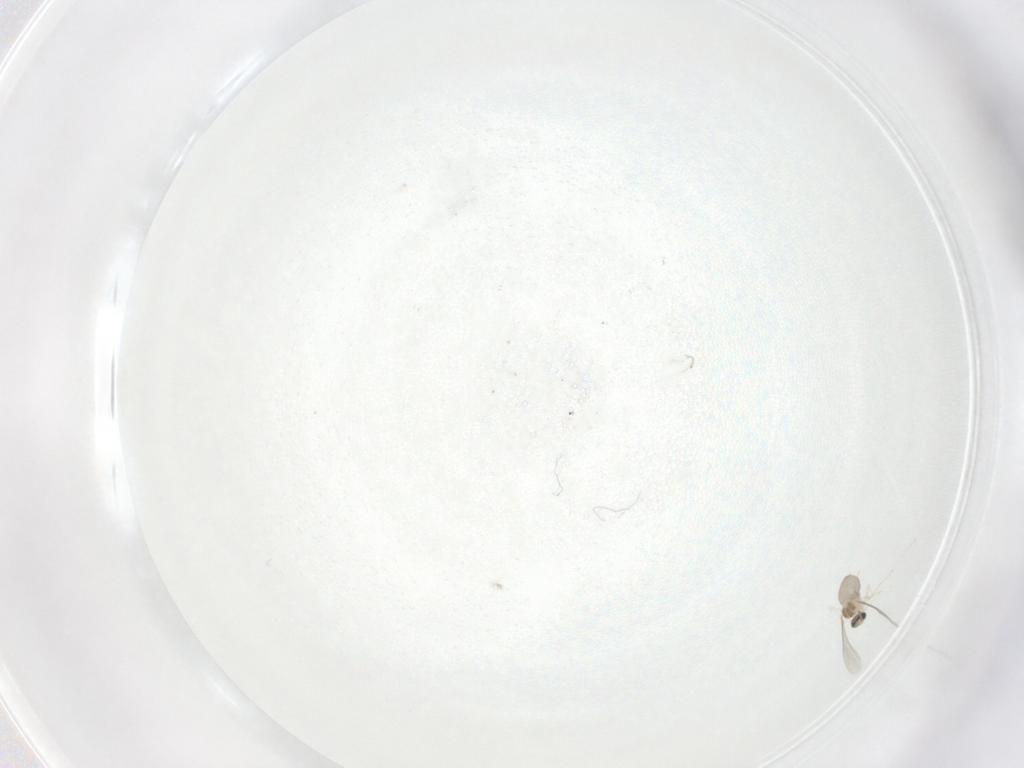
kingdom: Animalia
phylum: Arthropoda
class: Insecta
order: Hemiptera
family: Aleyrodidae
